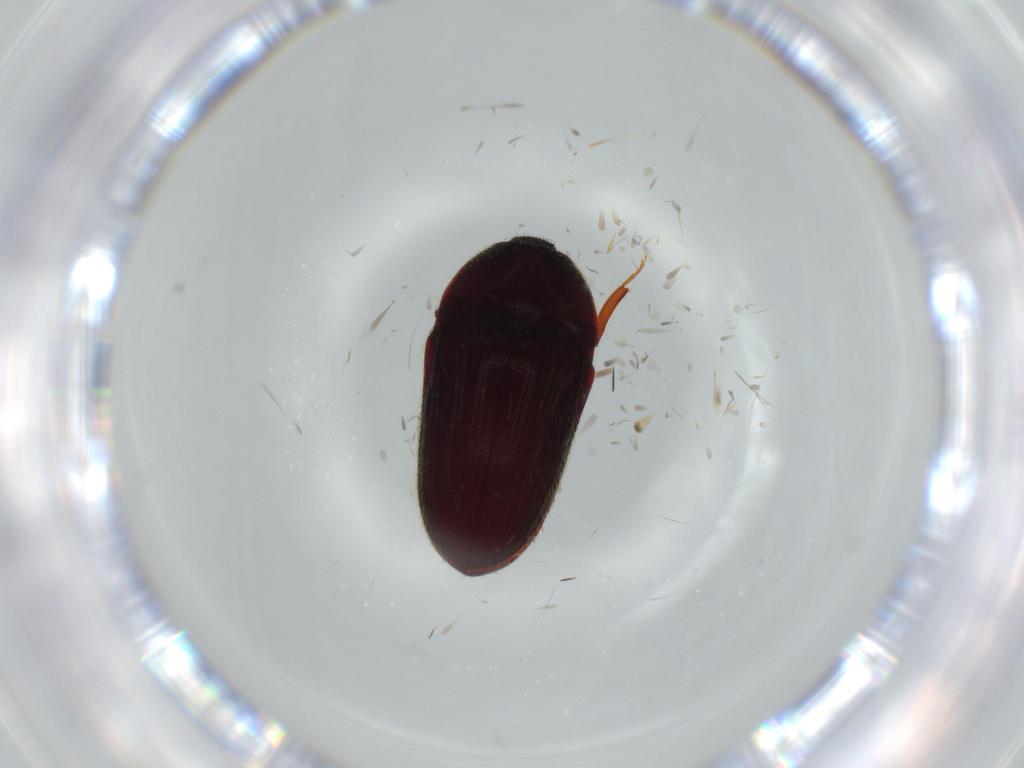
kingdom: Animalia
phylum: Arthropoda
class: Insecta
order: Coleoptera
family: Throscidae
